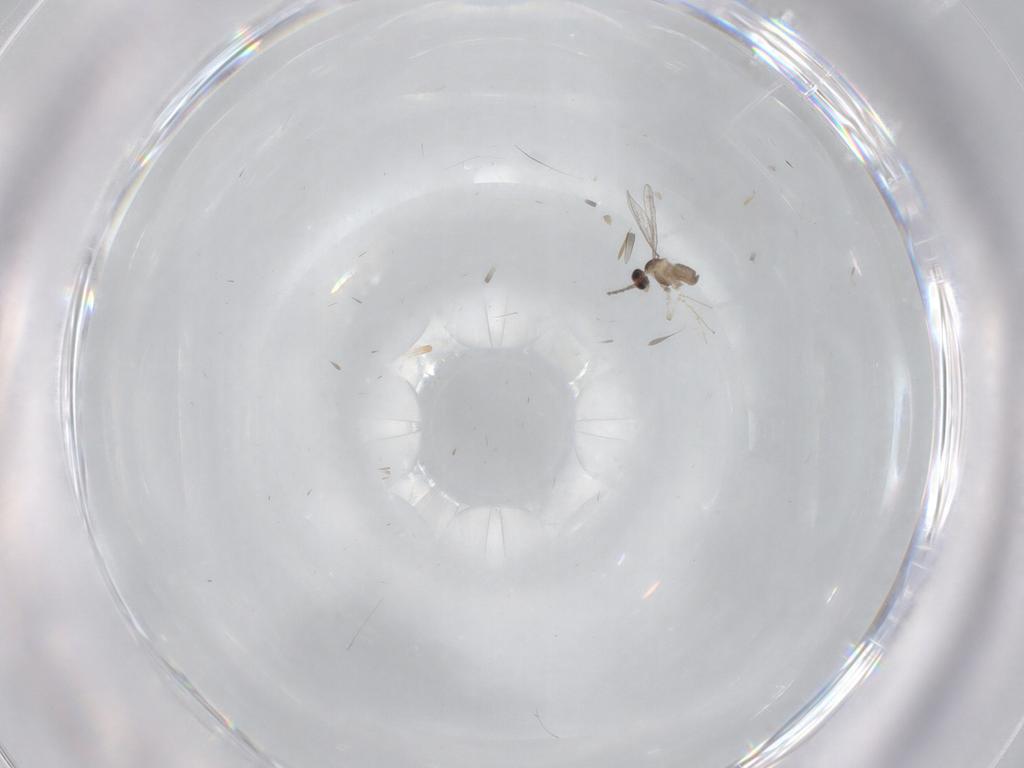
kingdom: Animalia
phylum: Arthropoda
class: Insecta
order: Diptera
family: Cecidomyiidae
